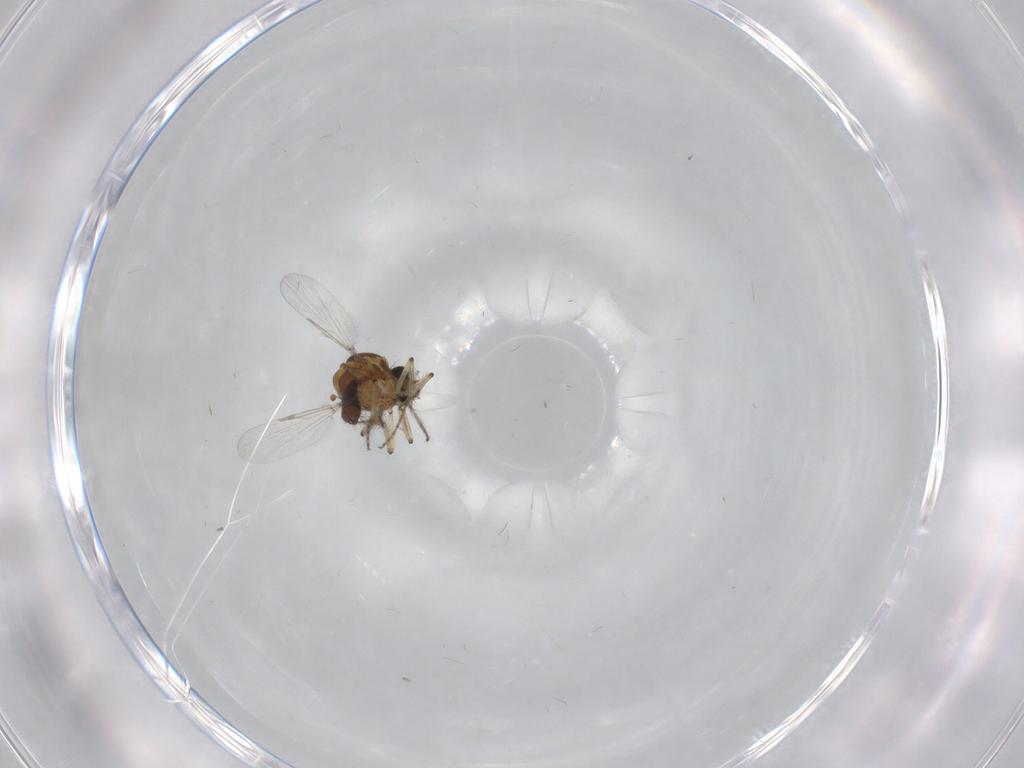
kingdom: Animalia
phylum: Arthropoda
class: Insecta
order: Diptera
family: Ceratopogonidae
